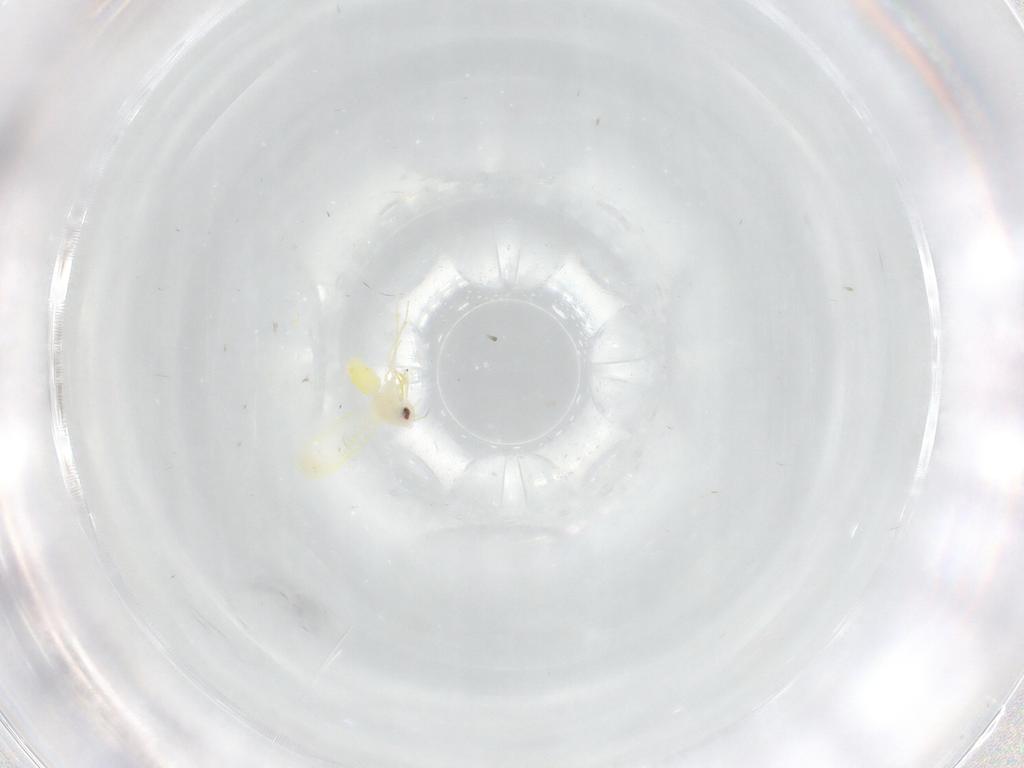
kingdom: Animalia
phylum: Arthropoda
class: Insecta
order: Hemiptera
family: Aleyrodidae
